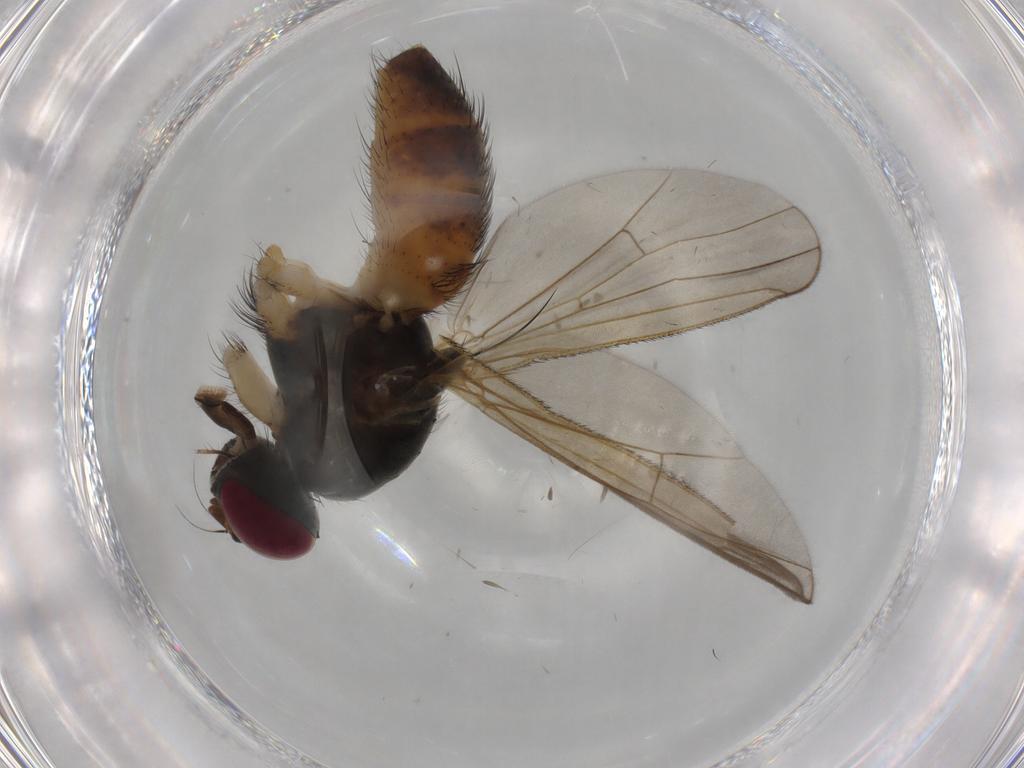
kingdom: Animalia
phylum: Arthropoda
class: Insecta
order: Diptera
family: Muscidae
